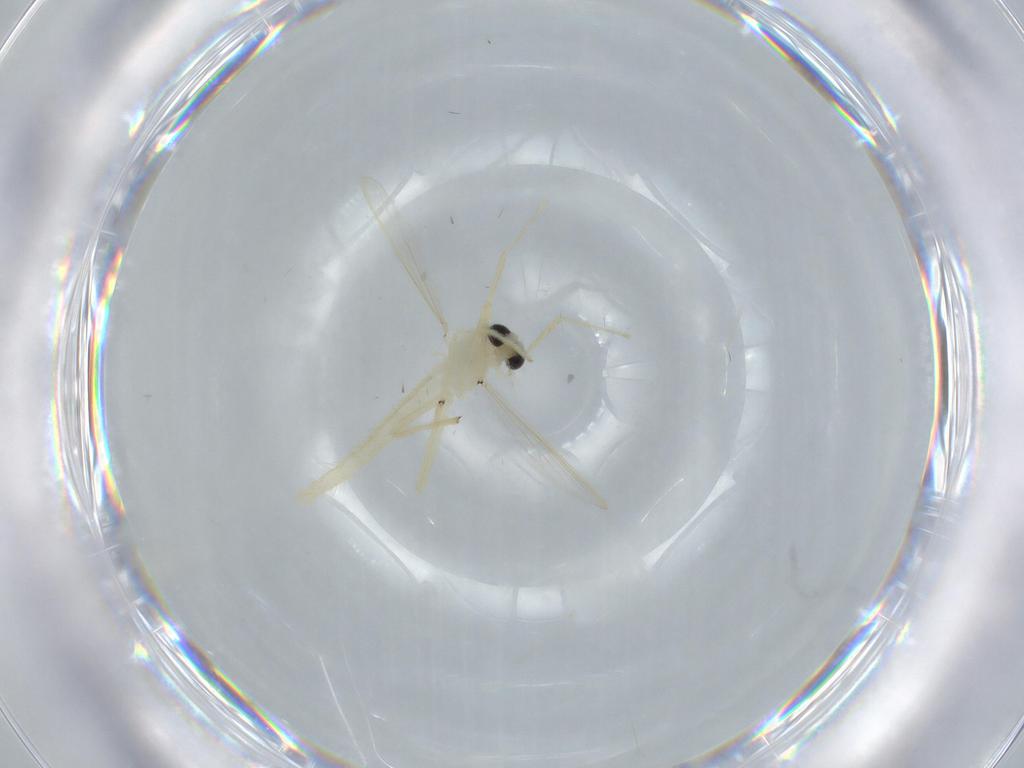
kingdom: Animalia
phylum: Arthropoda
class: Insecta
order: Diptera
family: Chironomidae
